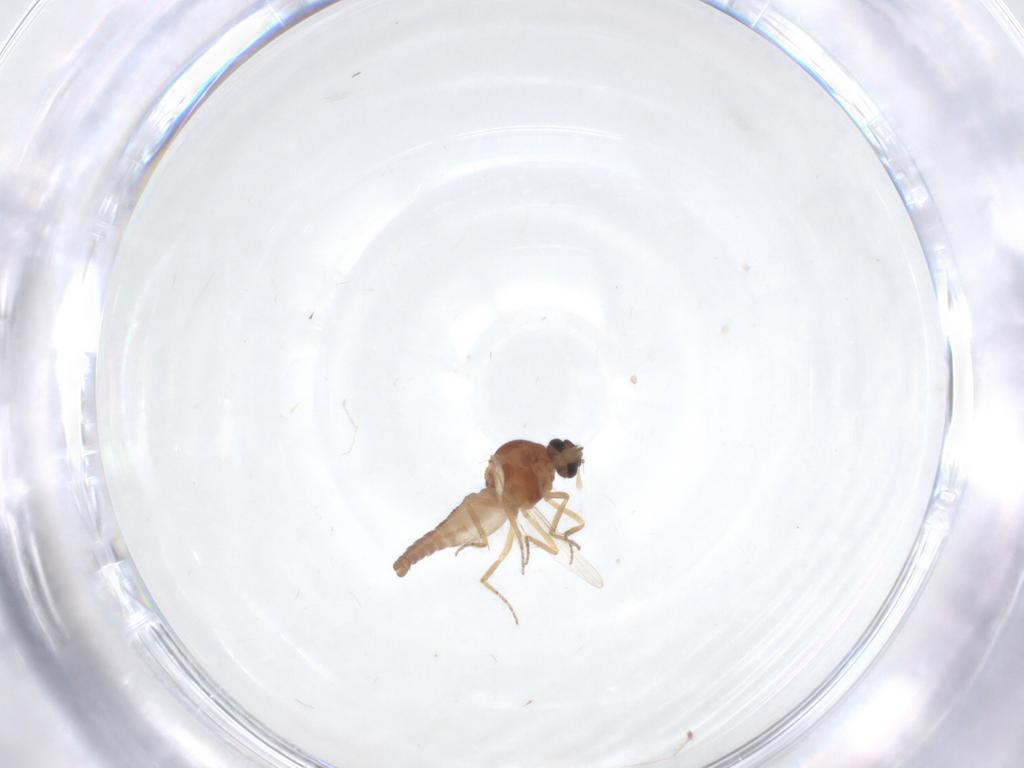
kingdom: Animalia
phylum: Arthropoda
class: Insecta
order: Diptera
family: Ceratopogonidae
